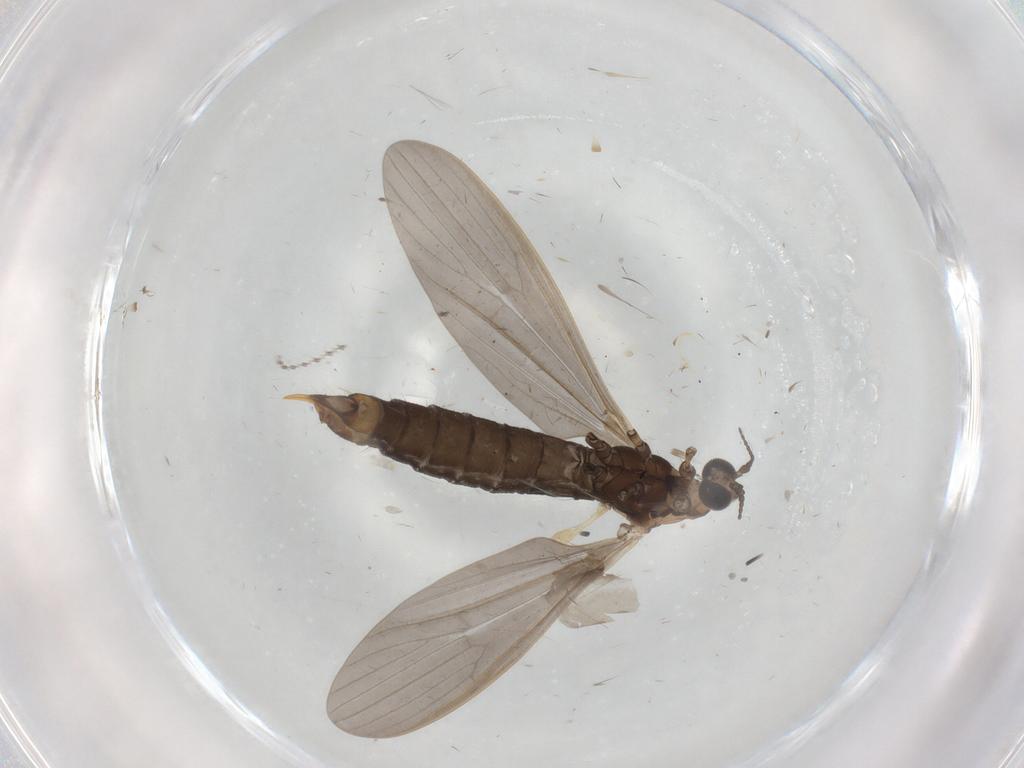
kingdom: Animalia
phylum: Arthropoda
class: Insecta
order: Diptera
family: Limoniidae
